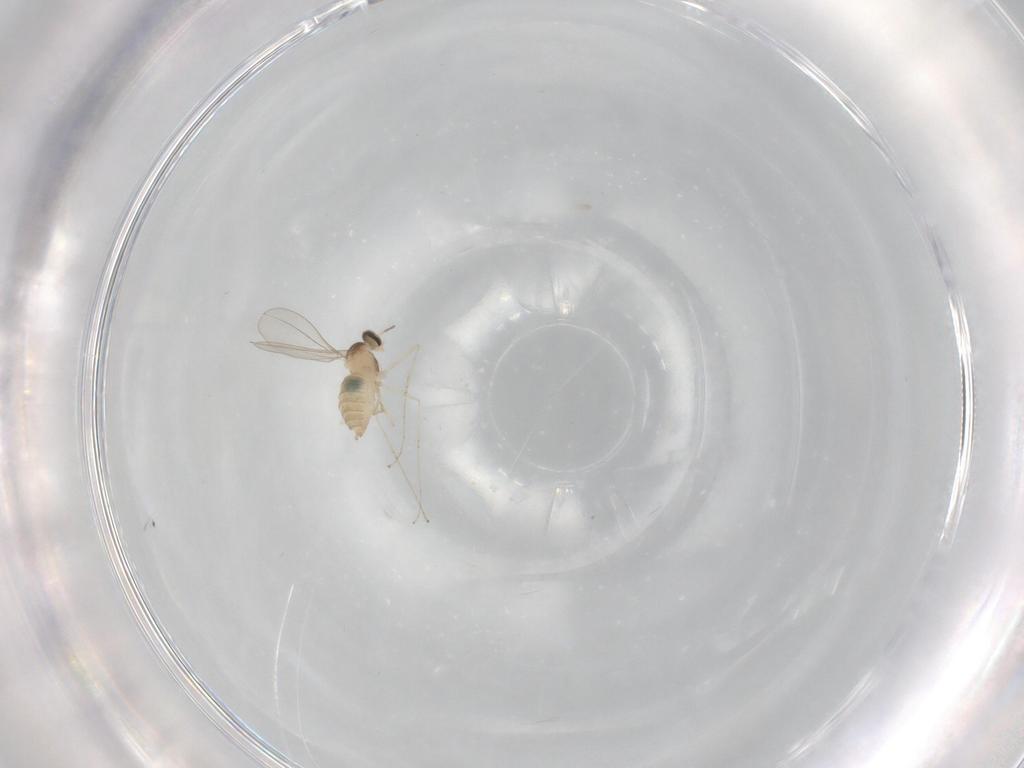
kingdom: Animalia
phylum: Arthropoda
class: Insecta
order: Diptera
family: Cecidomyiidae
